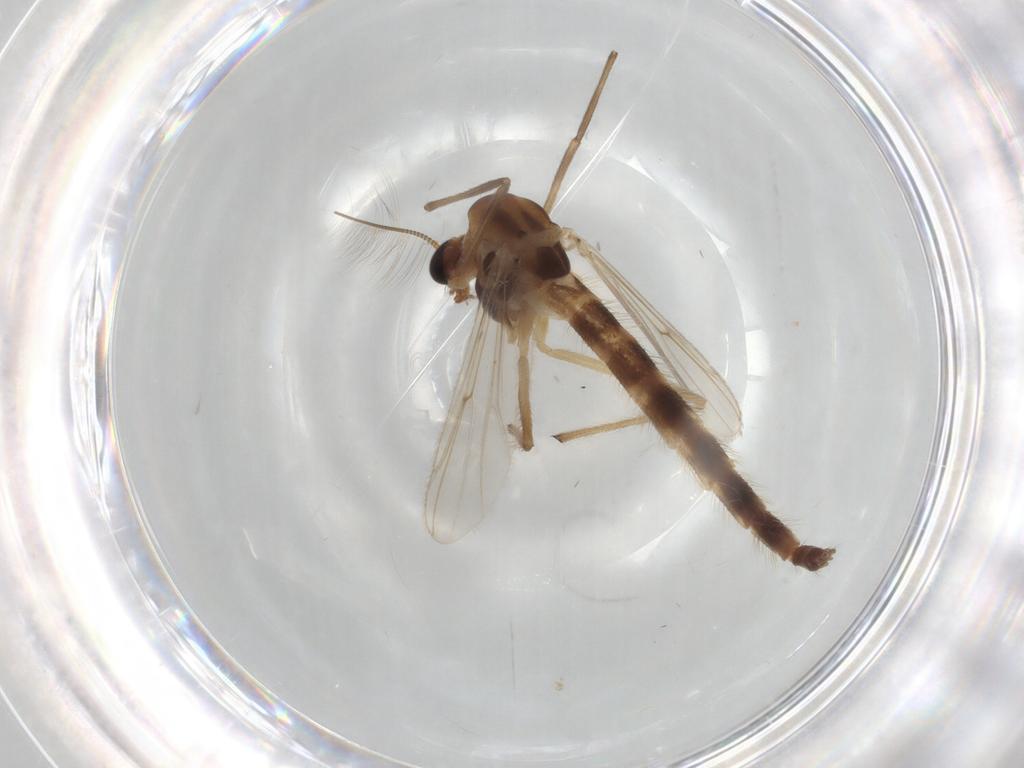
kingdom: Animalia
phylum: Arthropoda
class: Insecta
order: Diptera
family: Chironomidae
